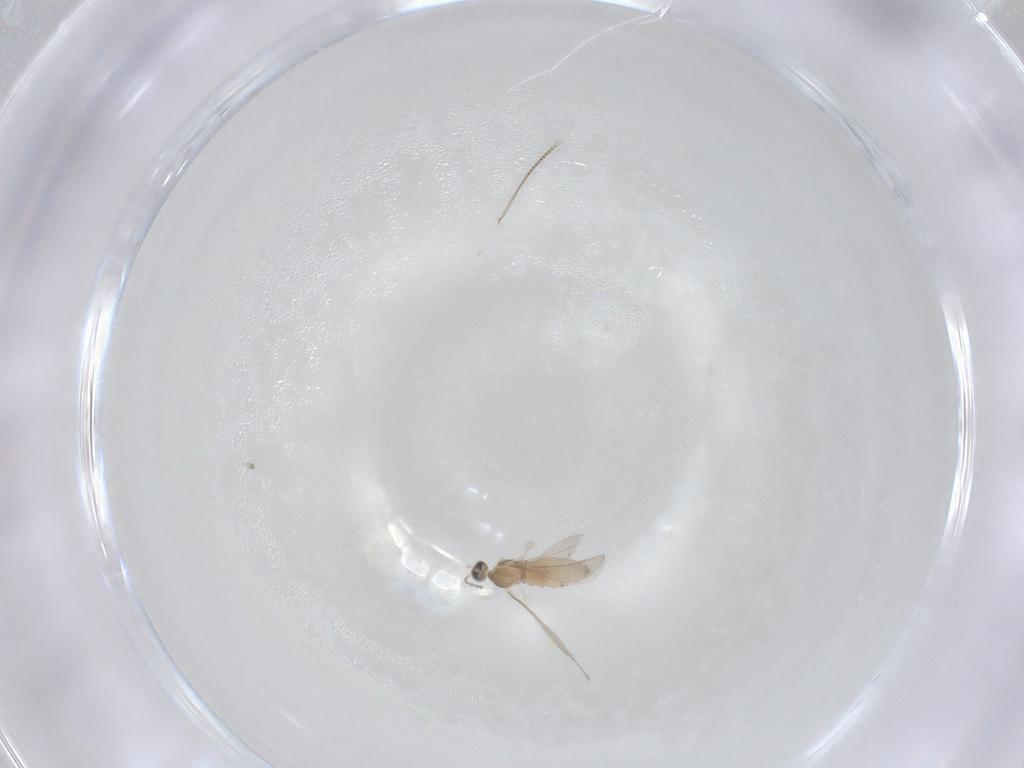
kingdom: Animalia
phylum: Arthropoda
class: Insecta
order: Diptera
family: Cecidomyiidae
